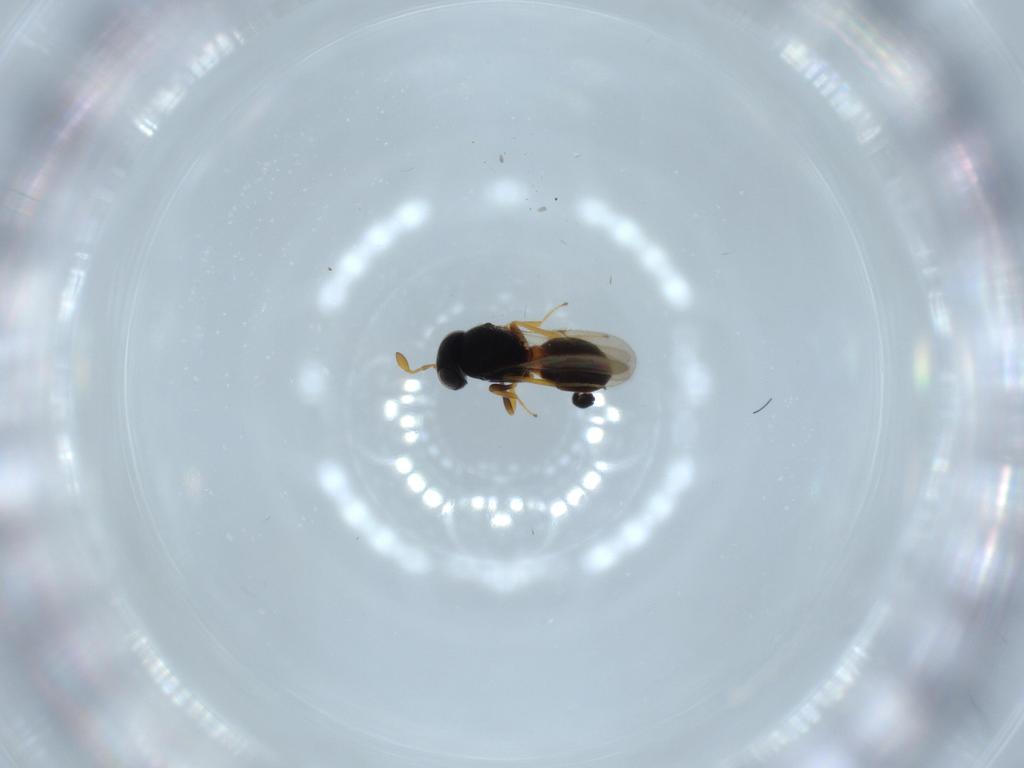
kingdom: Animalia
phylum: Arthropoda
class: Insecta
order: Hymenoptera
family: Scelionidae
